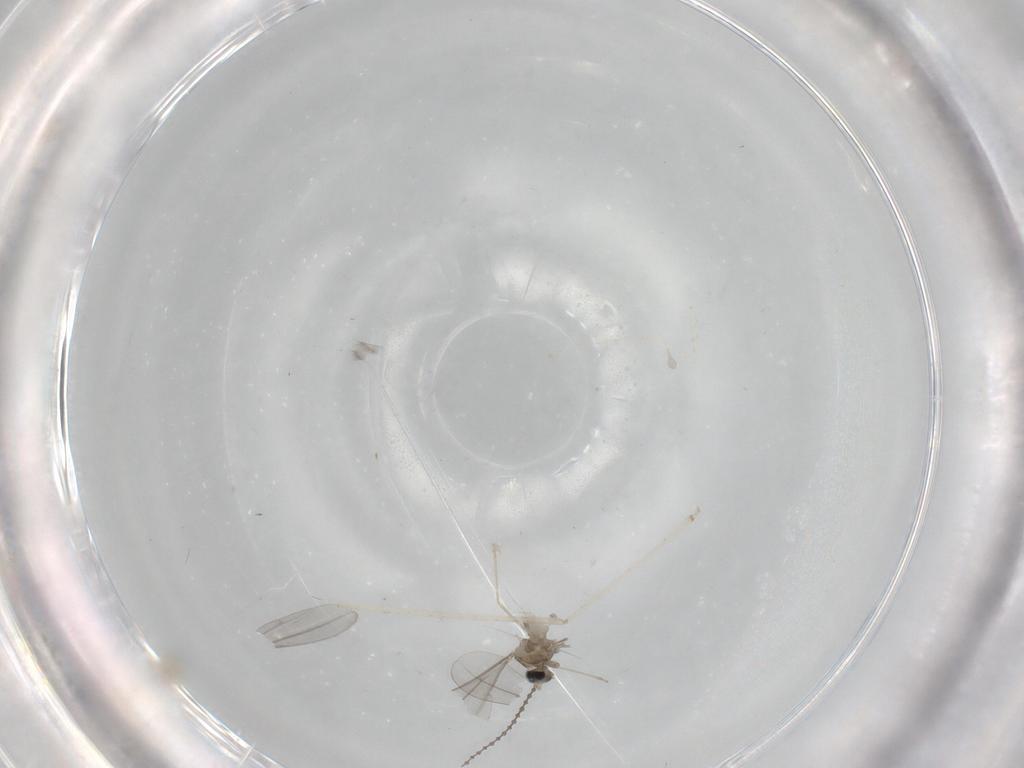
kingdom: Animalia
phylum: Arthropoda
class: Insecta
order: Diptera
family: Cecidomyiidae
